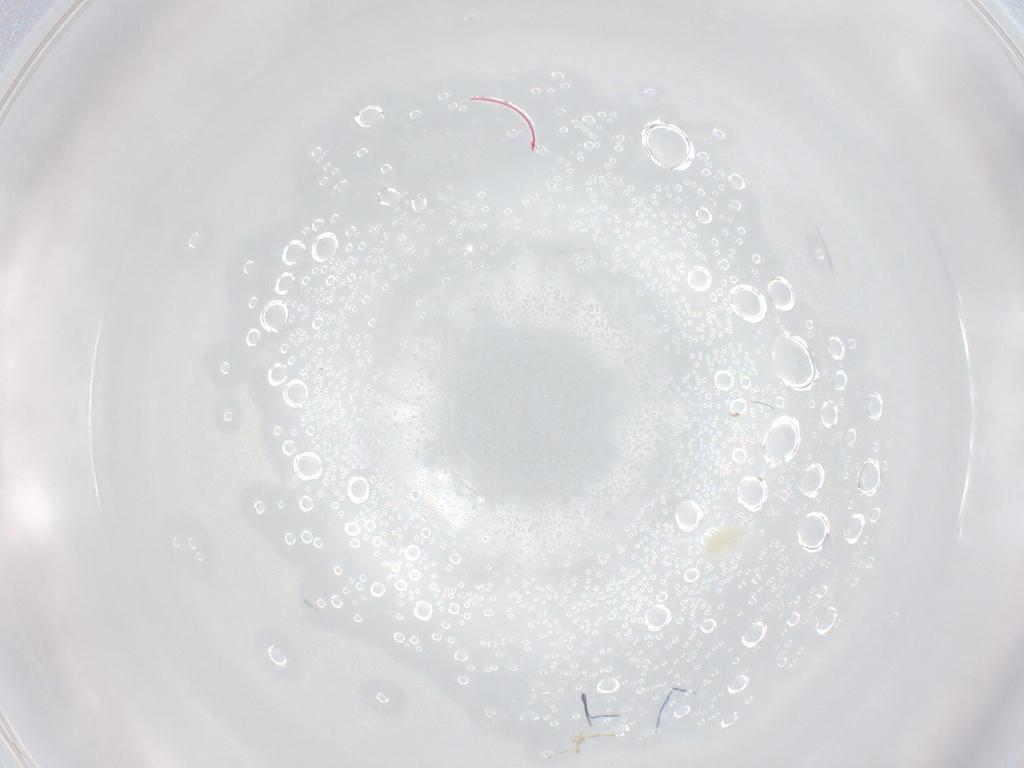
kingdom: Animalia
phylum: Arthropoda
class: Arachnida
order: Trombidiformes
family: Eupodidae
